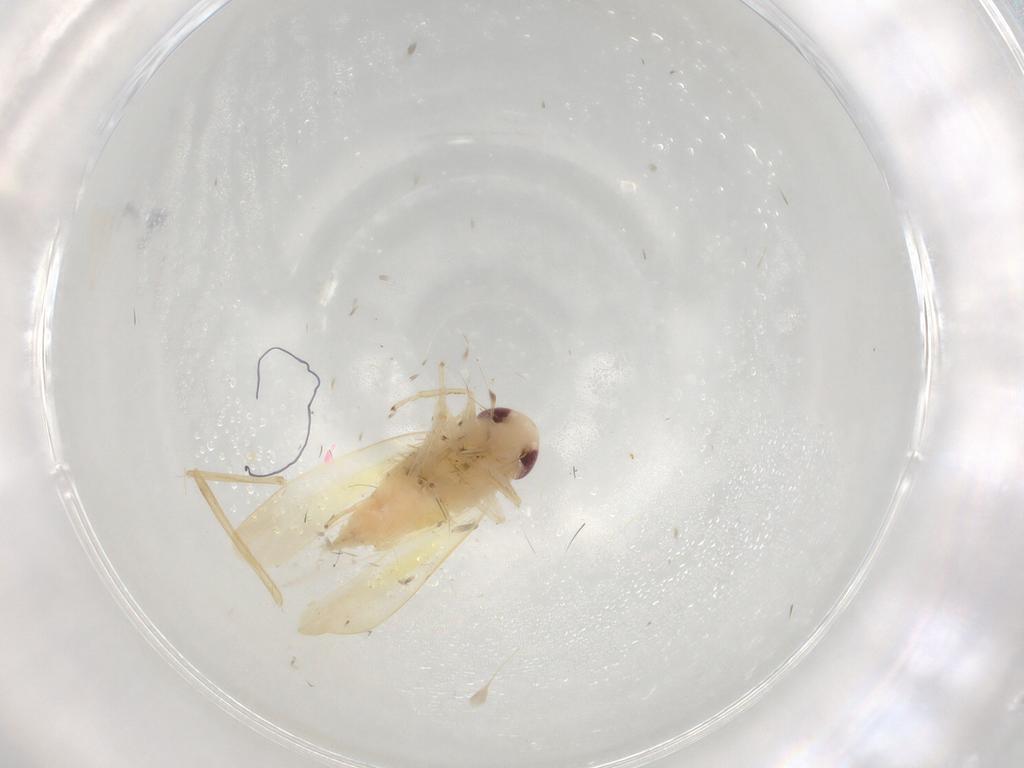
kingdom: Animalia
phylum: Arthropoda
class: Insecta
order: Hemiptera
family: Cicadellidae
